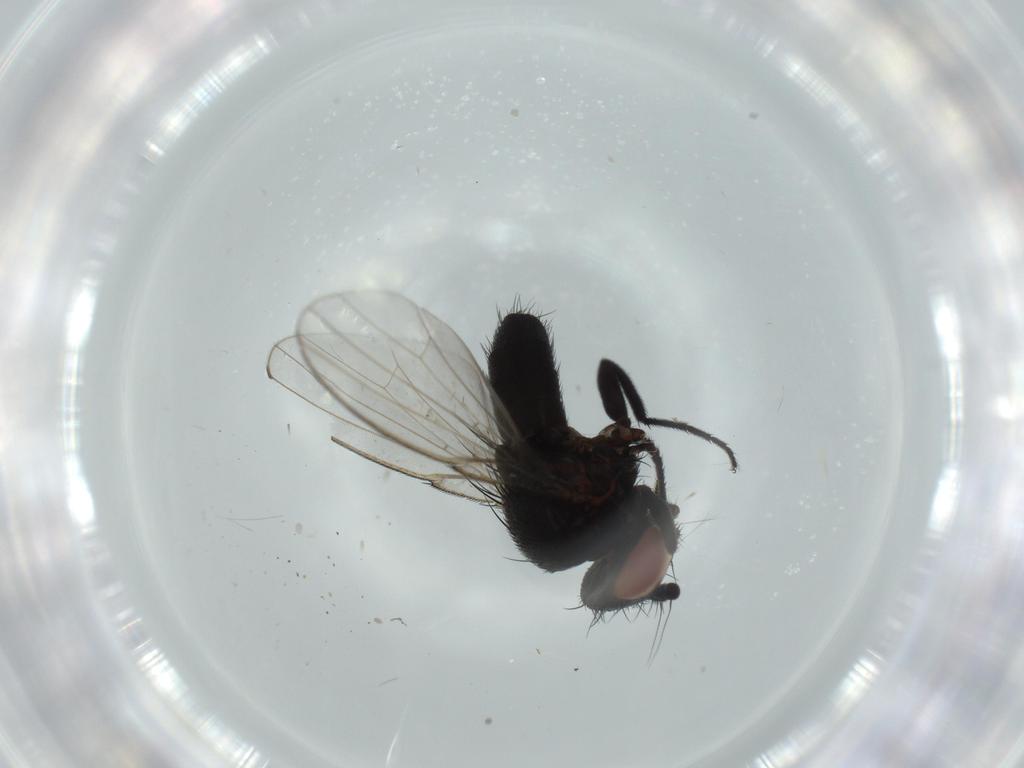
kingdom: Animalia
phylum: Arthropoda
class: Insecta
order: Diptera
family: Milichiidae
